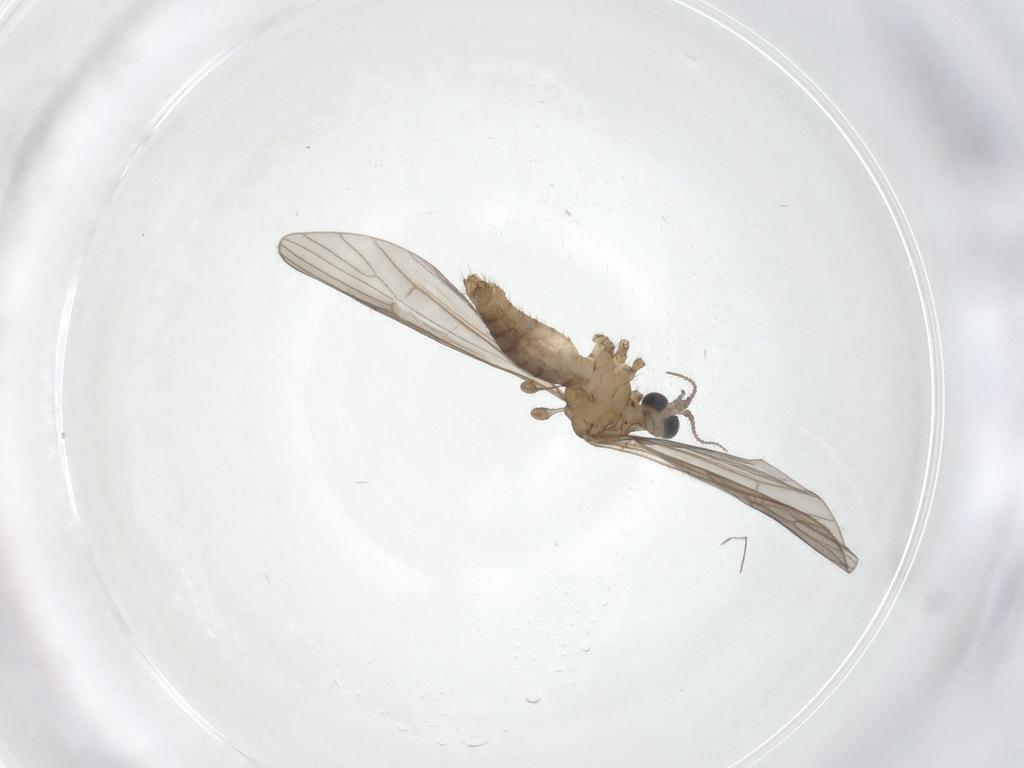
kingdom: Animalia
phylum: Arthropoda
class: Insecta
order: Diptera
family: Limoniidae
